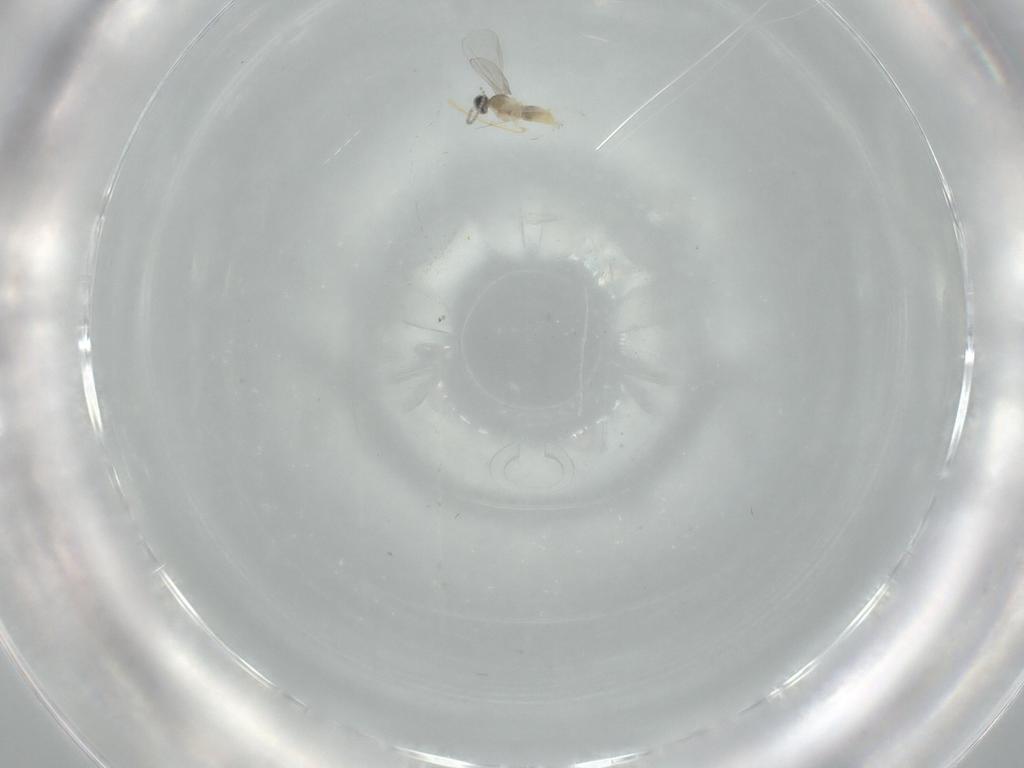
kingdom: Animalia
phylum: Arthropoda
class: Insecta
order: Diptera
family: Cecidomyiidae
